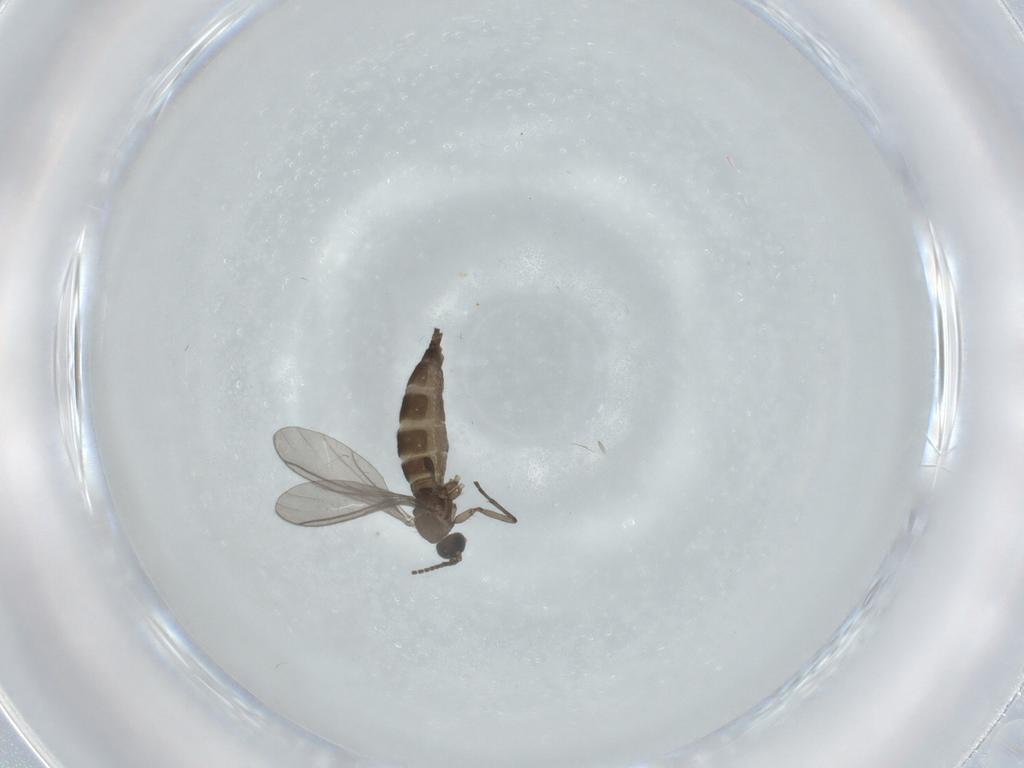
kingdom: Animalia
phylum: Arthropoda
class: Insecta
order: Diptera
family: Chironomidae
